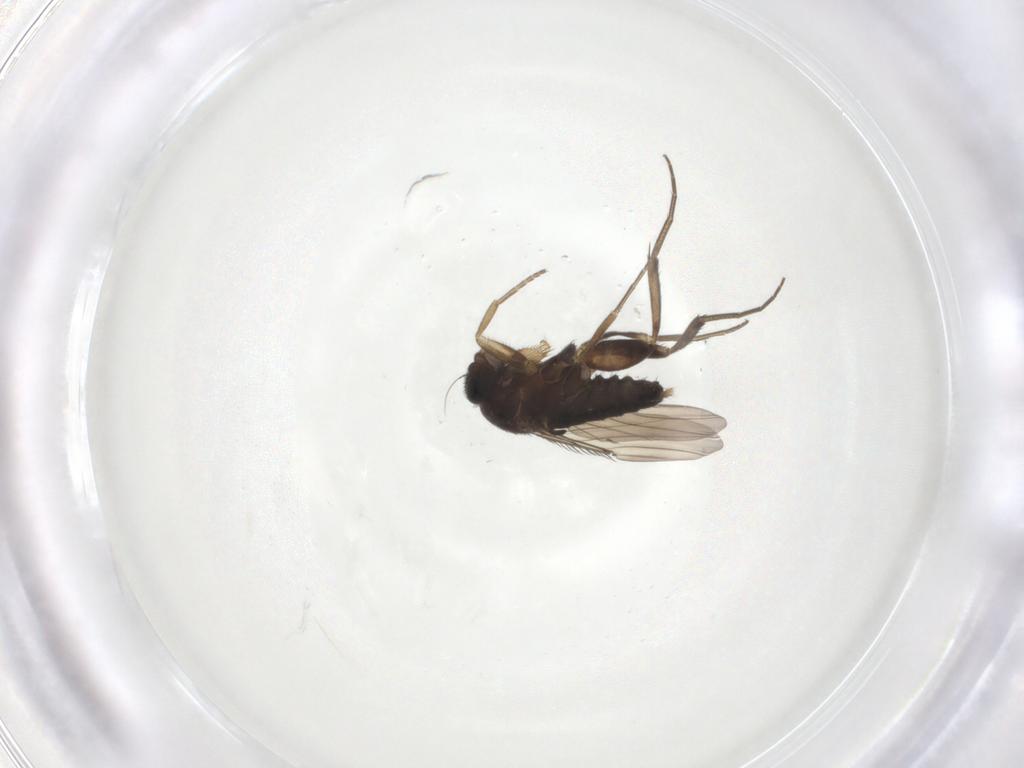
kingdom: Animalia
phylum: Arthropoda
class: Insecta
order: Diptera
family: Phoridae
